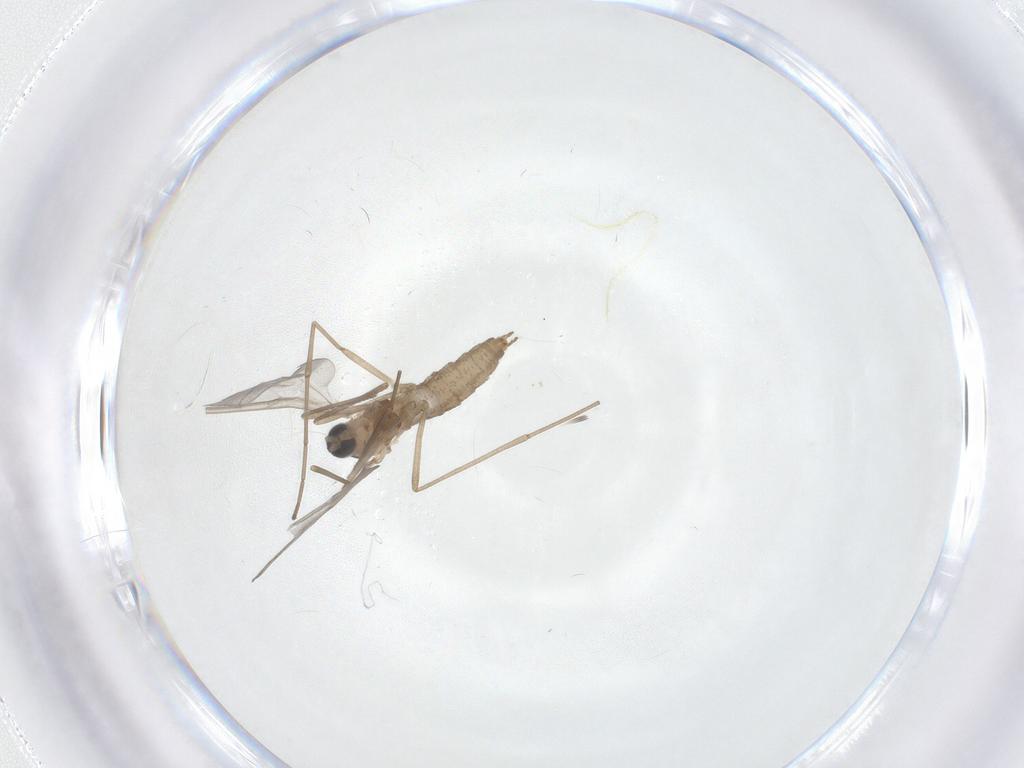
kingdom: Animalia
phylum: Arthropoda
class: Insecta
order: Diptera
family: Cecidomyiidae
